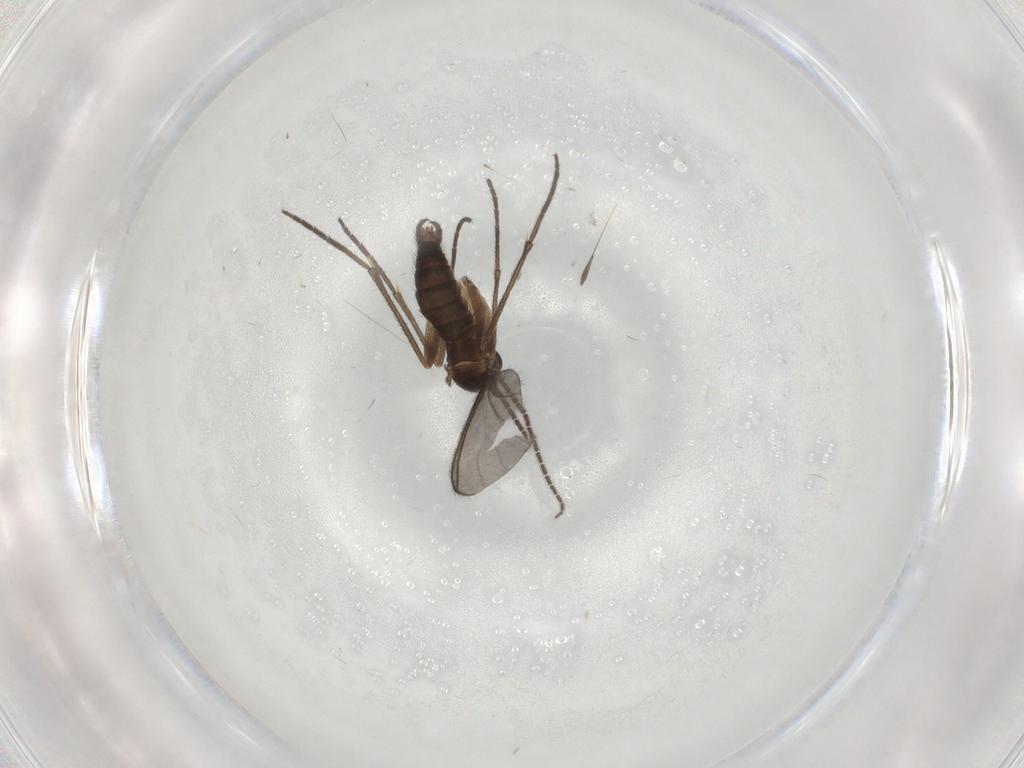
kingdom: Animalia
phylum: Arthropoda
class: Insecta
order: Diptera
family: Chironomidae
